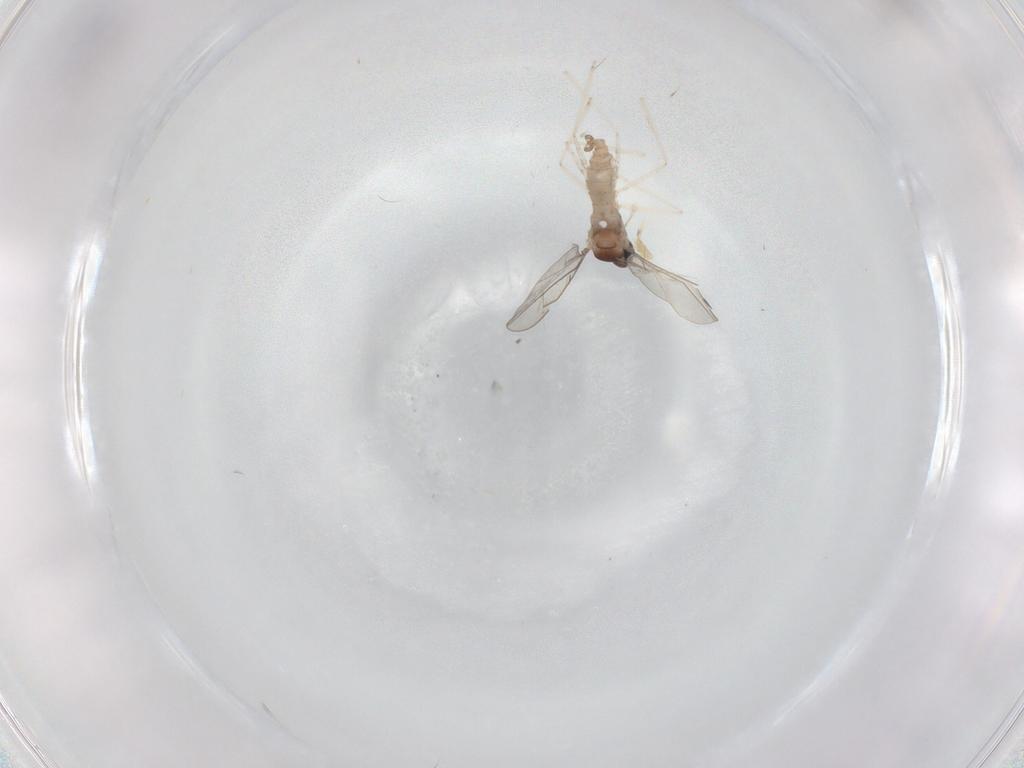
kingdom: Animalia
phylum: Arthropoda
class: Insecta
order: Diptera
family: Cecidomyiidae
